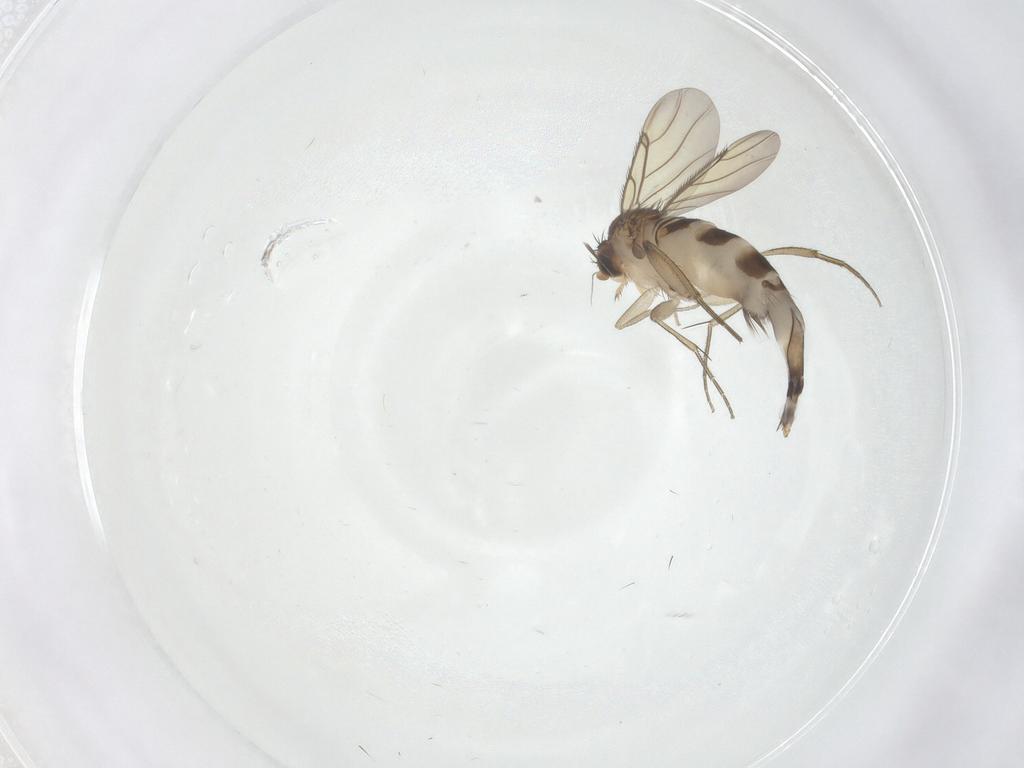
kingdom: Animalia
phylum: Arthropoda
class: Insecta
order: Diptera
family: Phoridae
